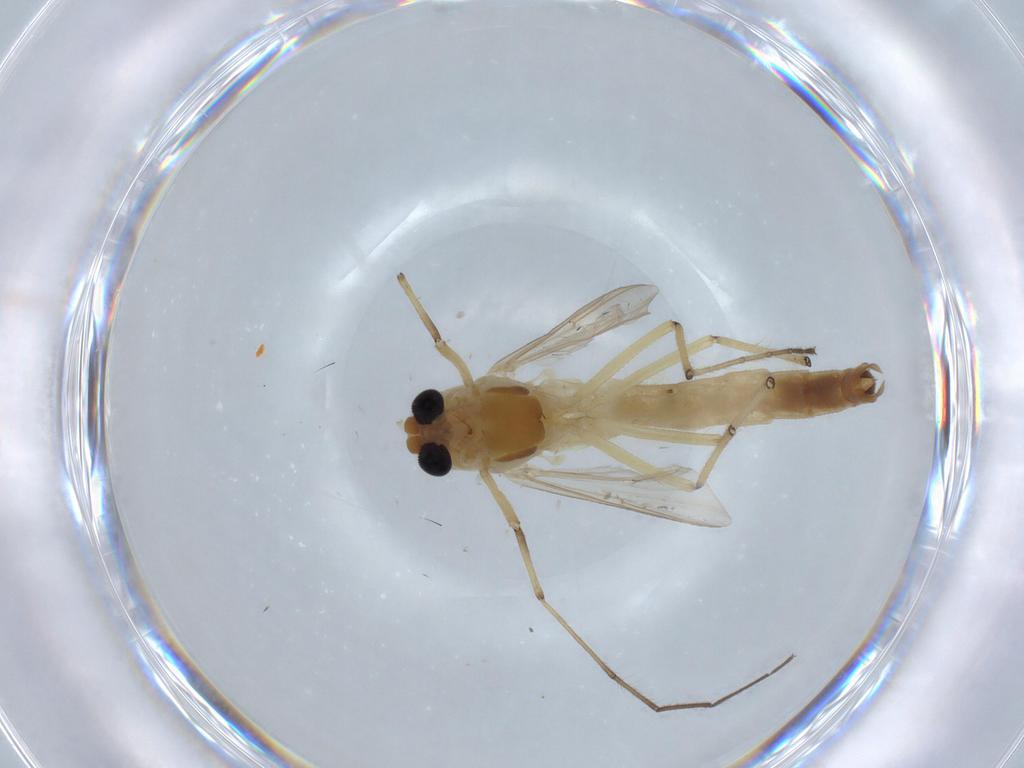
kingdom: Animalia
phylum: Arthropoda
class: Insecta
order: Diptera
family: Chironomidae
